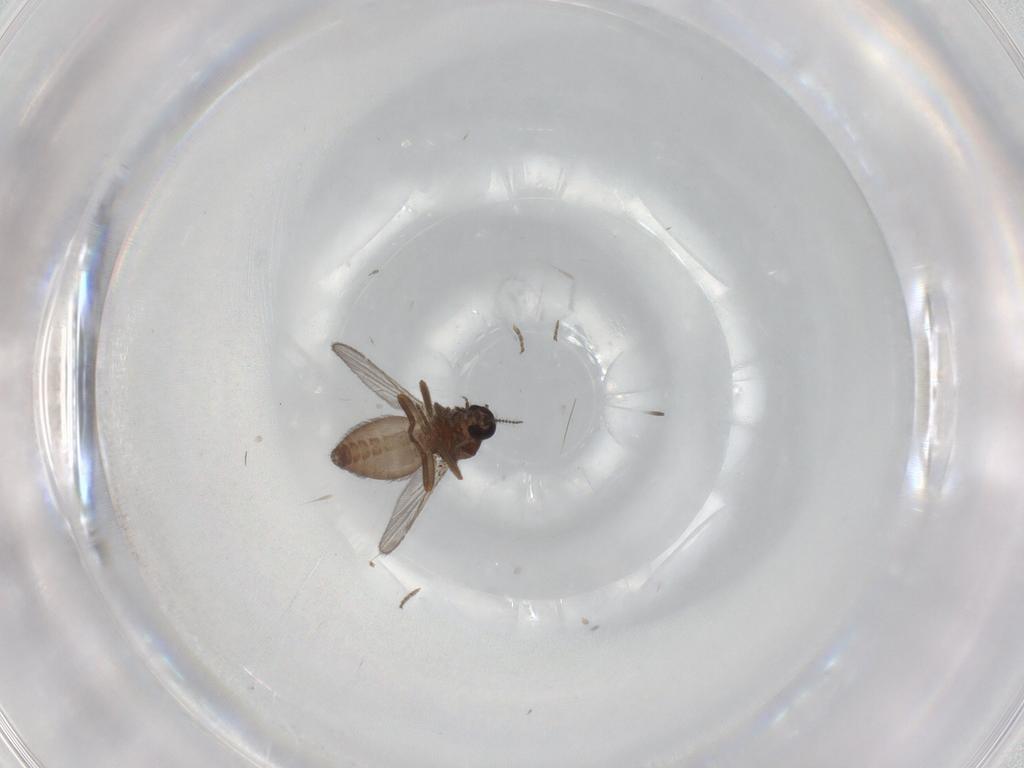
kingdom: Animalia
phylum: Arthropoda
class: Insecta
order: Diptera
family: Ceratopogonidae
